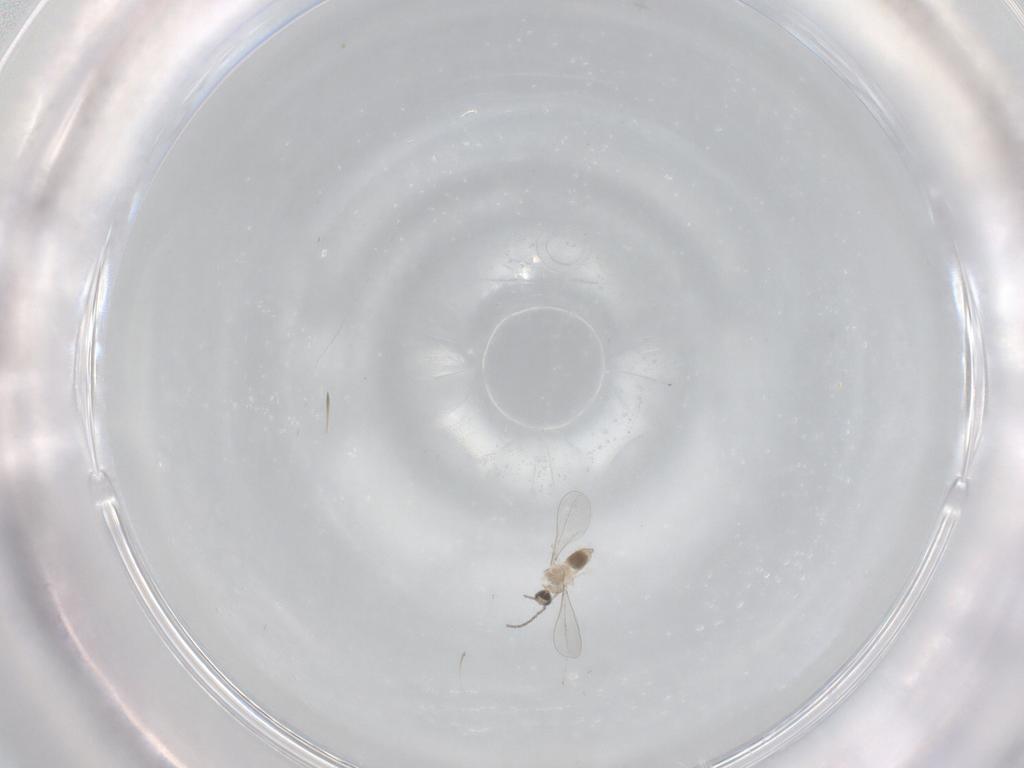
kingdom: Animalia
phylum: Arthropoda
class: Insecta
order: Diptera
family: Cecidomyiidae
